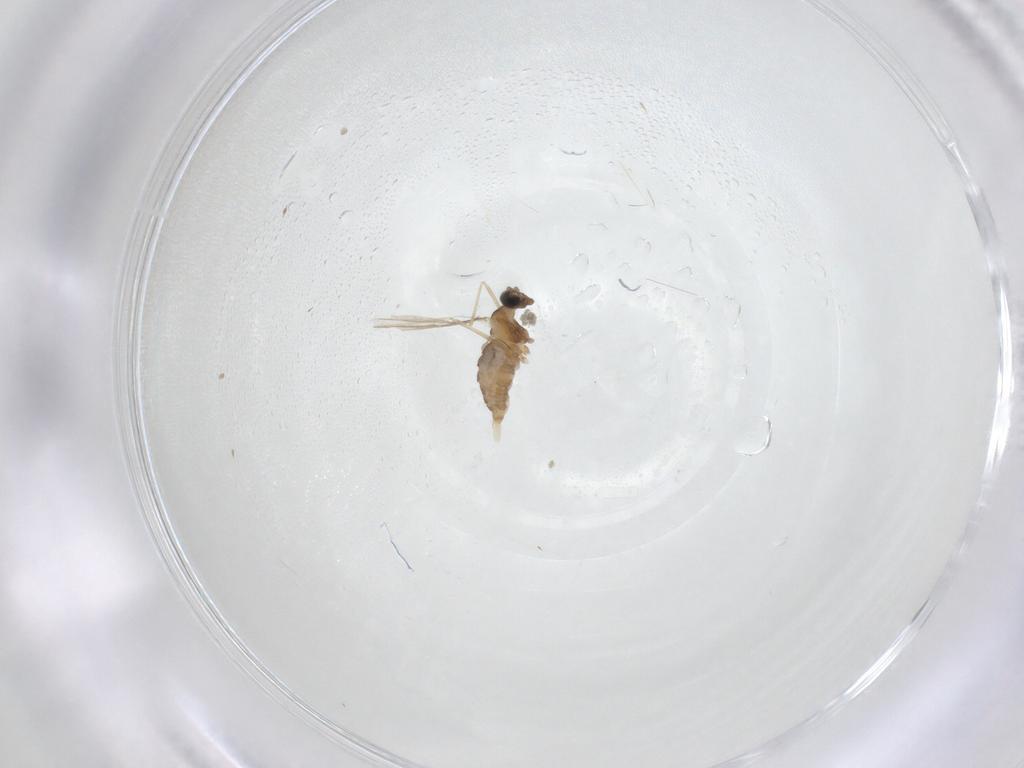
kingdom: Animalia
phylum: Arthropoda
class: Insecta
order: Diptera
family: Cecidomyiidae
